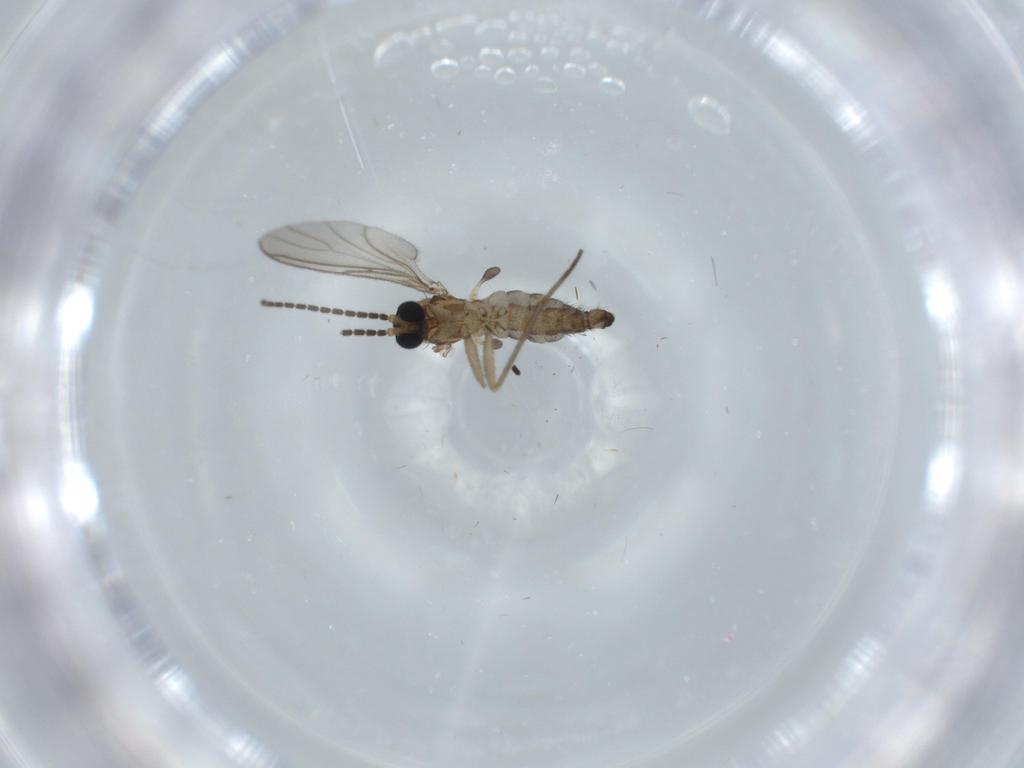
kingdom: Animalia
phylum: Arthropoda
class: Insecta
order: Diptera
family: Sciaridae
